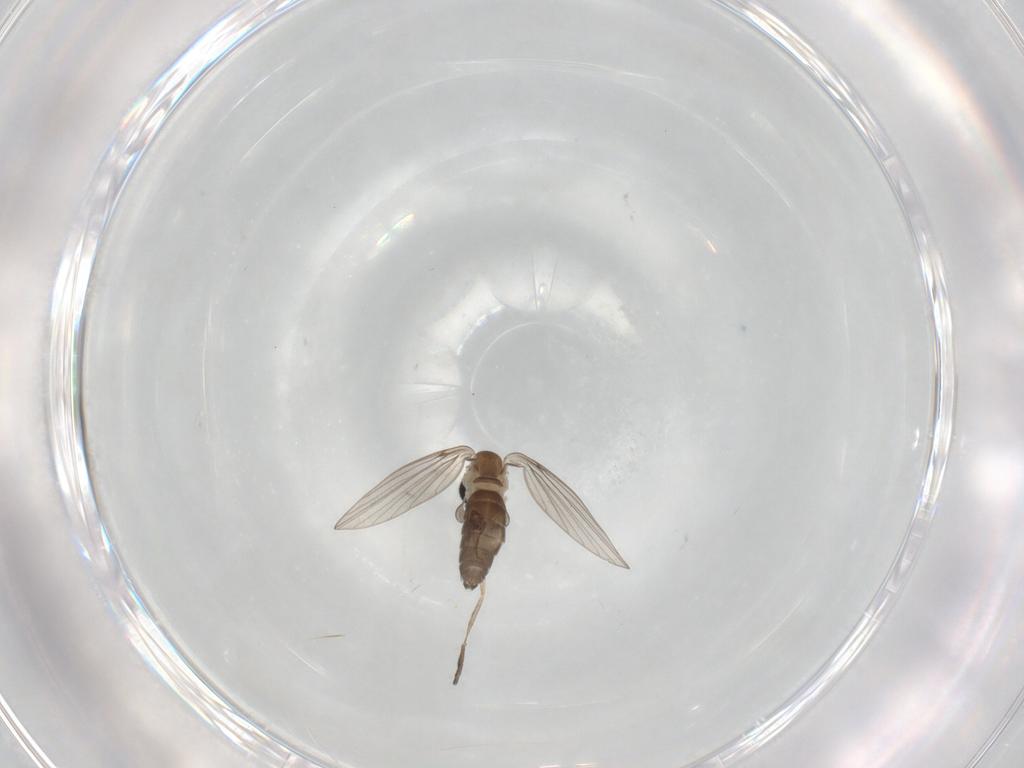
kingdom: Animalia
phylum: Arthropoda
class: Insecta
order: Diptera
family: Psychodidae
